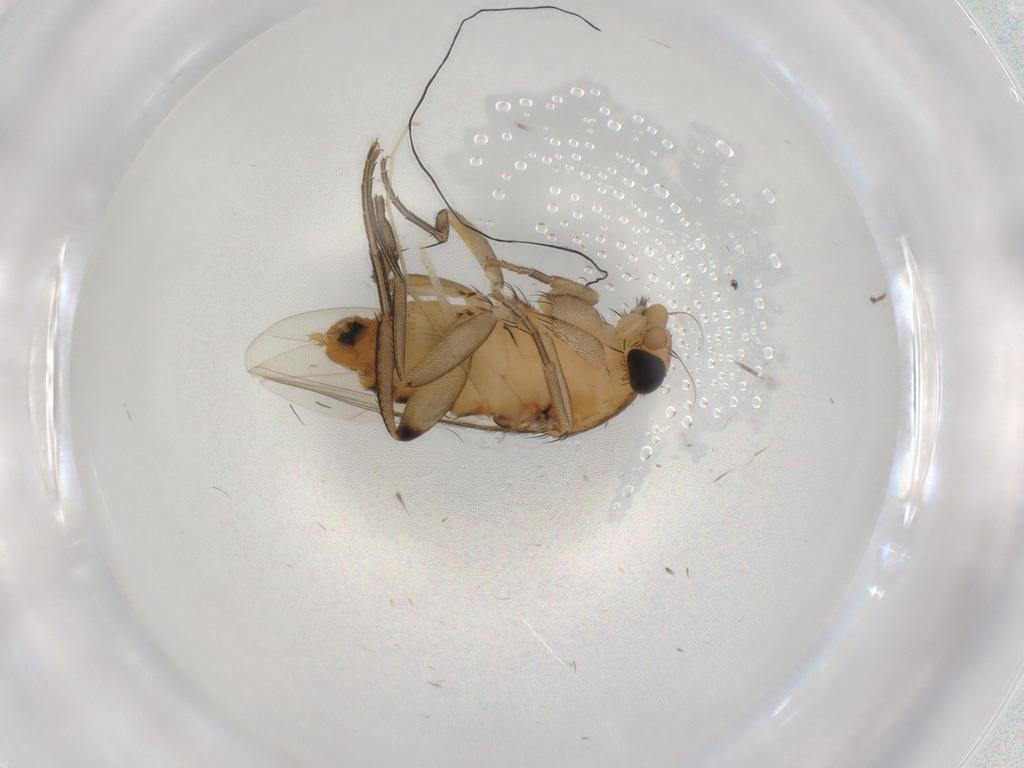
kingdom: Animalia
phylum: Arthropoda
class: Insecta
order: Diptera
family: Phoridae
